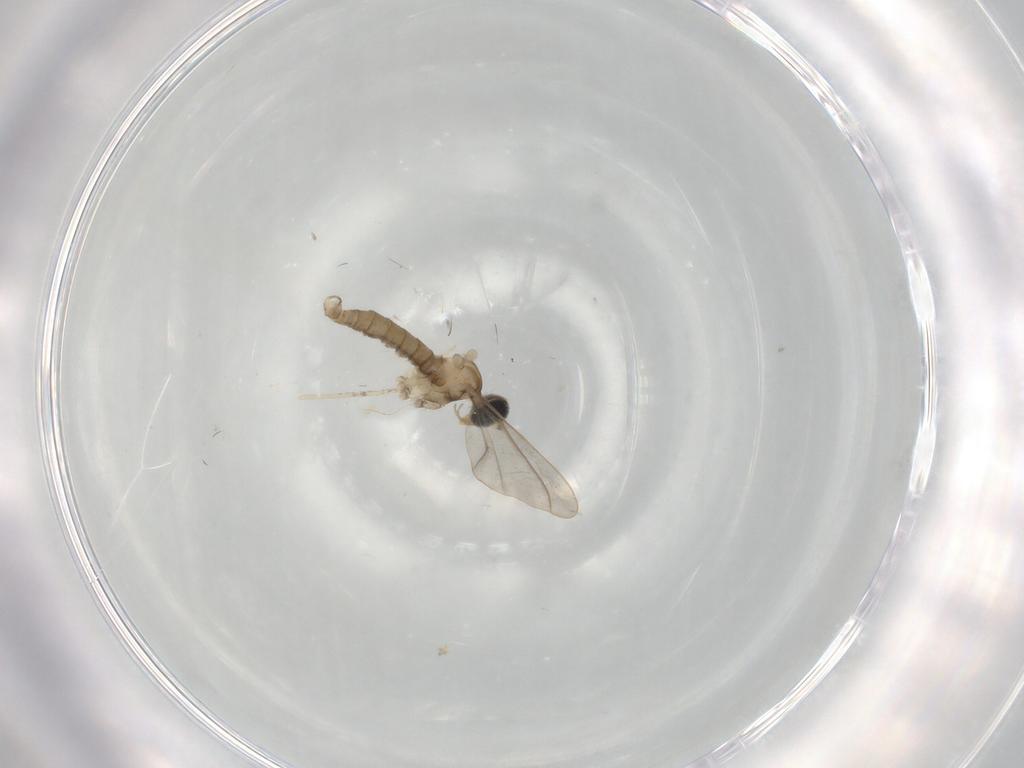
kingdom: Animalia
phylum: Arthropoda
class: Insecta
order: Diptera
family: Cecidomyiidae
